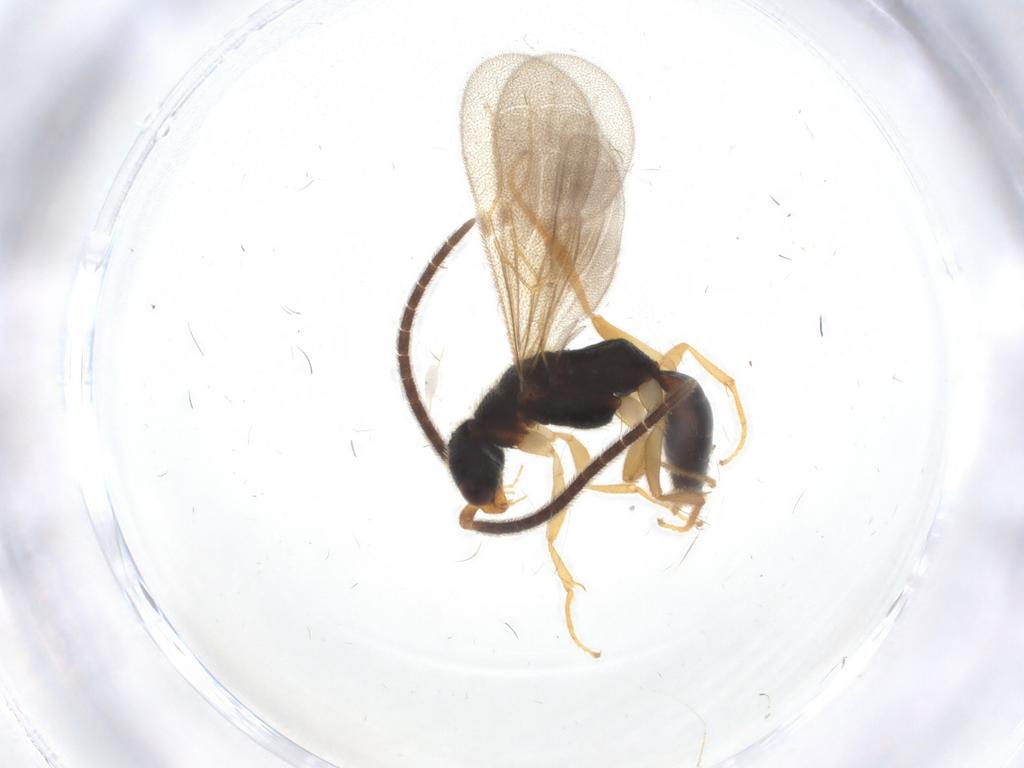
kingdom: Animalia
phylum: Arthropoda
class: Insecta
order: Hymenoptera
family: Bethylidae
